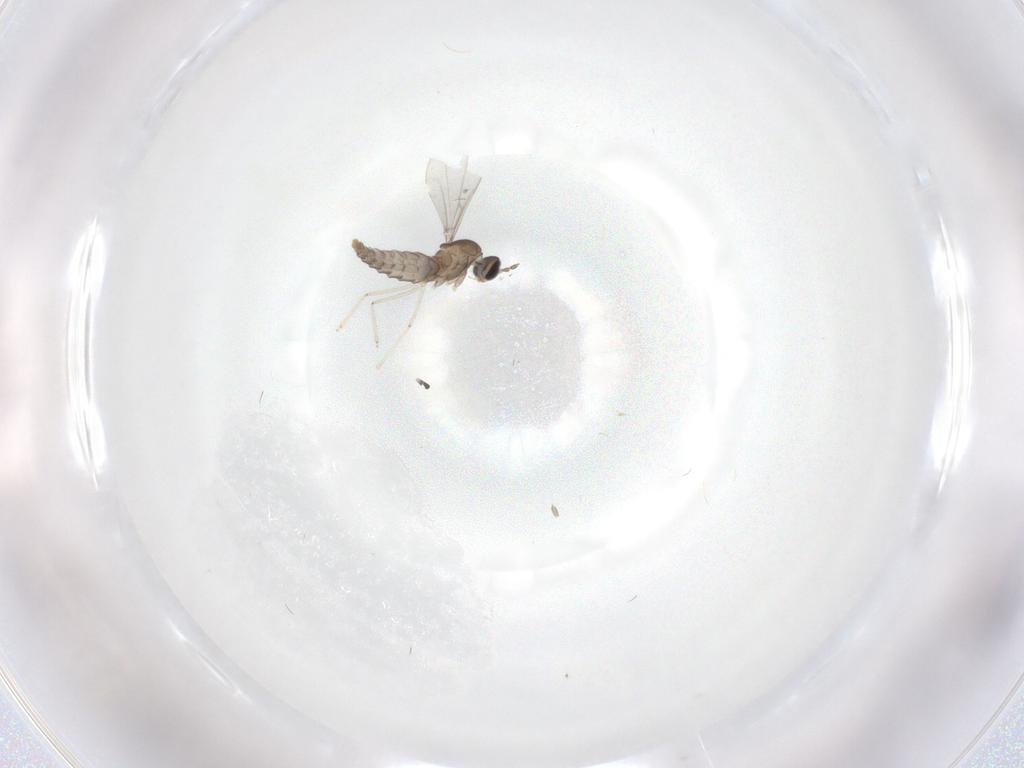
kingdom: Animalia
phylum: Arthropoda
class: Insecta
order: Diptera
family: Cecidomyiidae
